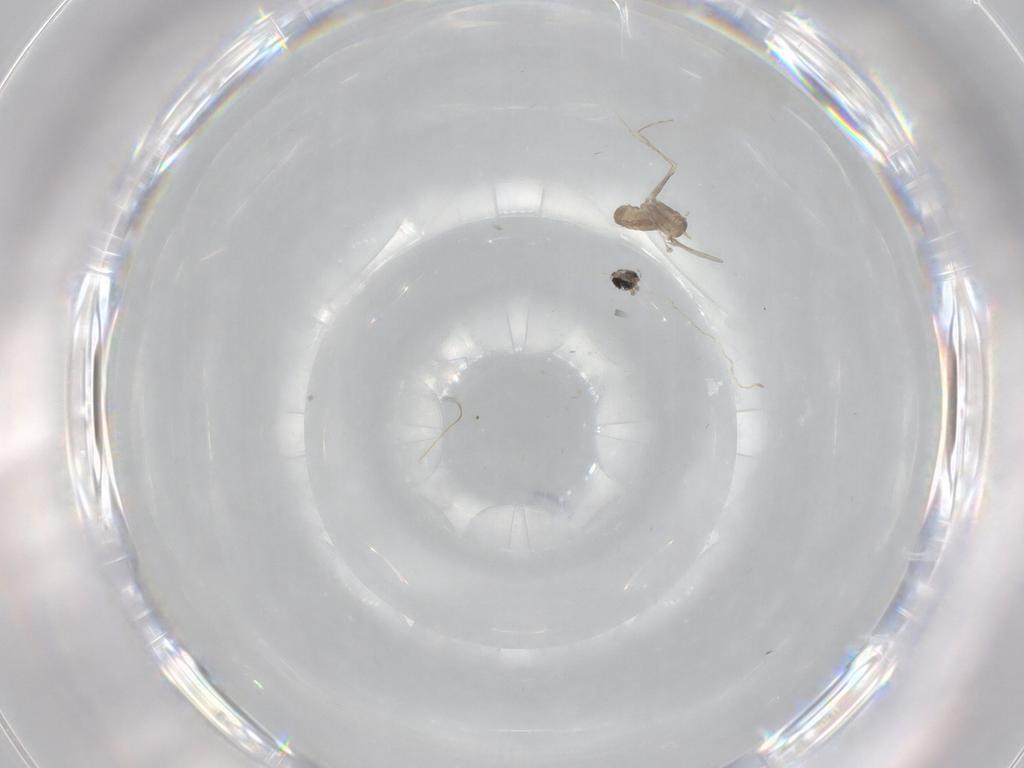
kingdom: Animalia
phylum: Arthropoda
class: Insecta
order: Diptera
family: Cecidomyiidae
